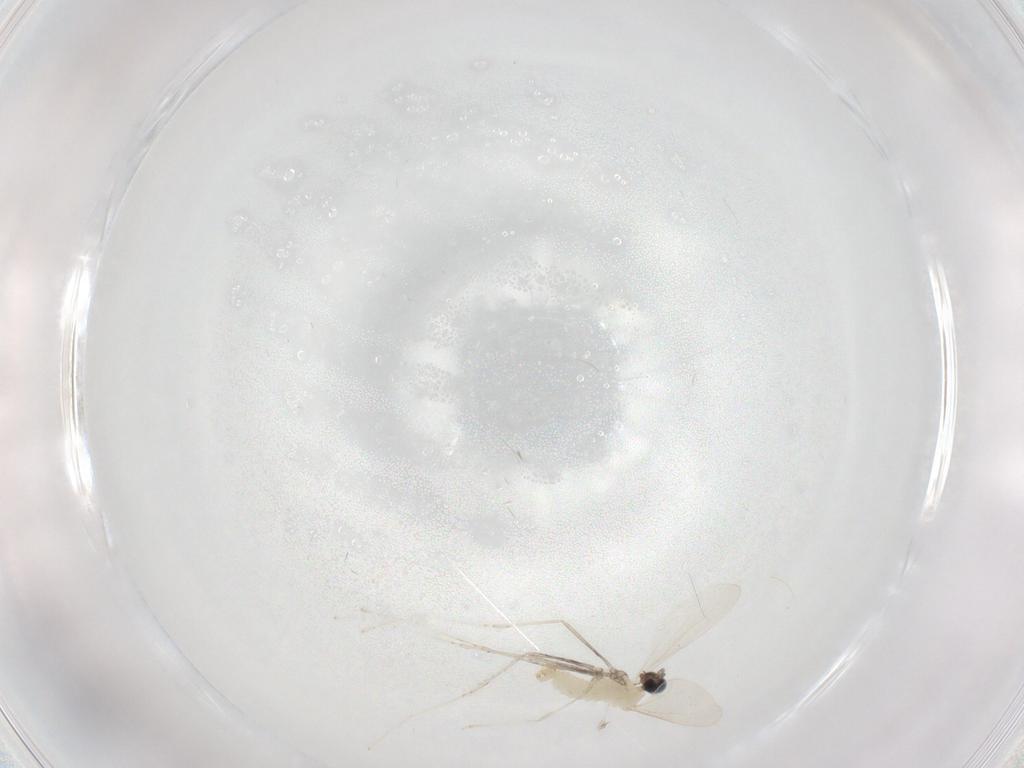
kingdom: Animalia
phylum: Arthropoda
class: Insecta
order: Diptera
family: Cecidomyiidae
